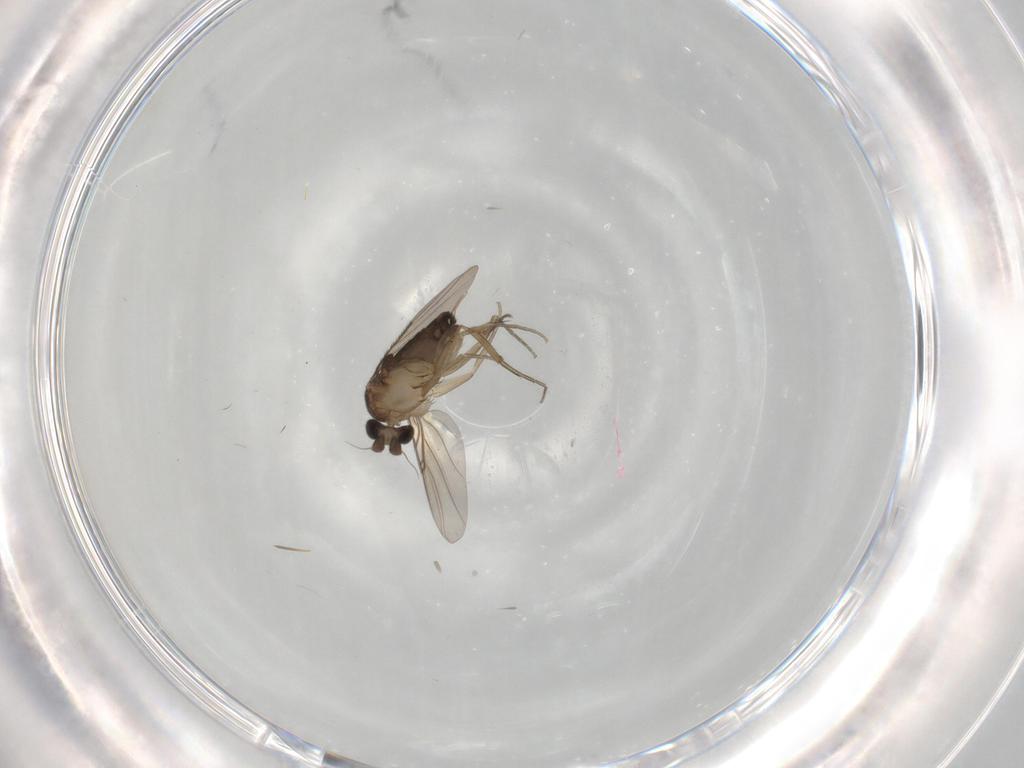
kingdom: Animalia
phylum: Arthropoda
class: Insecta
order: Diptera
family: Phoridae
